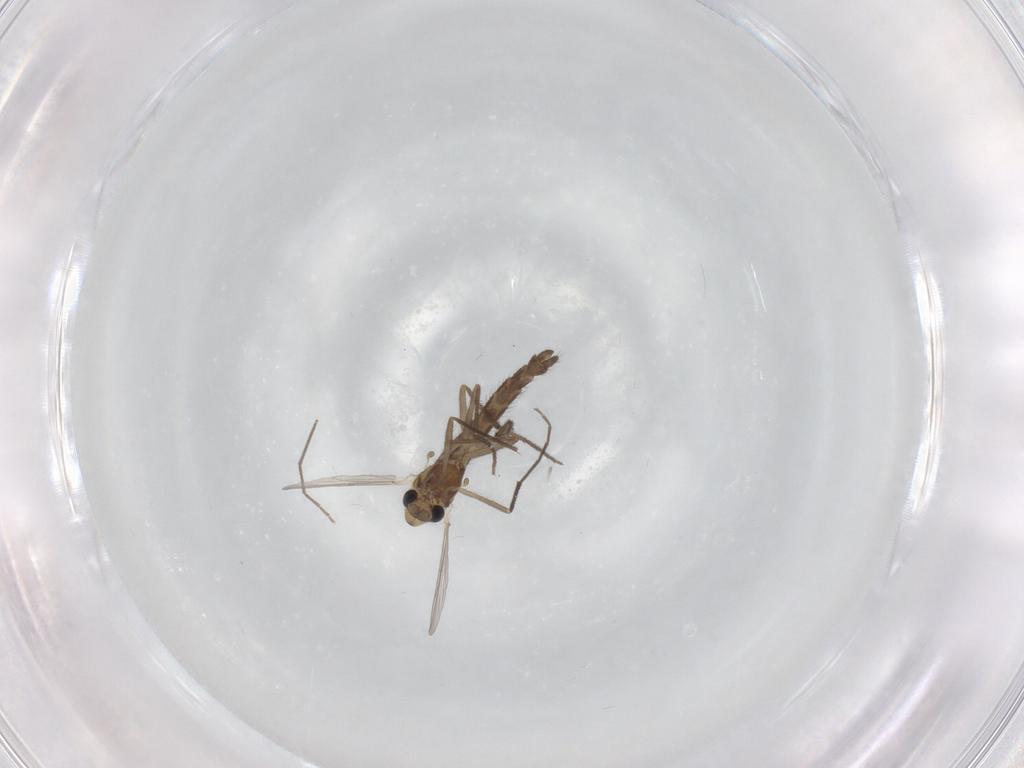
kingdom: Animalia
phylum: Arthropoda
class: Insecta
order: Diptera
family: Chironomidae
